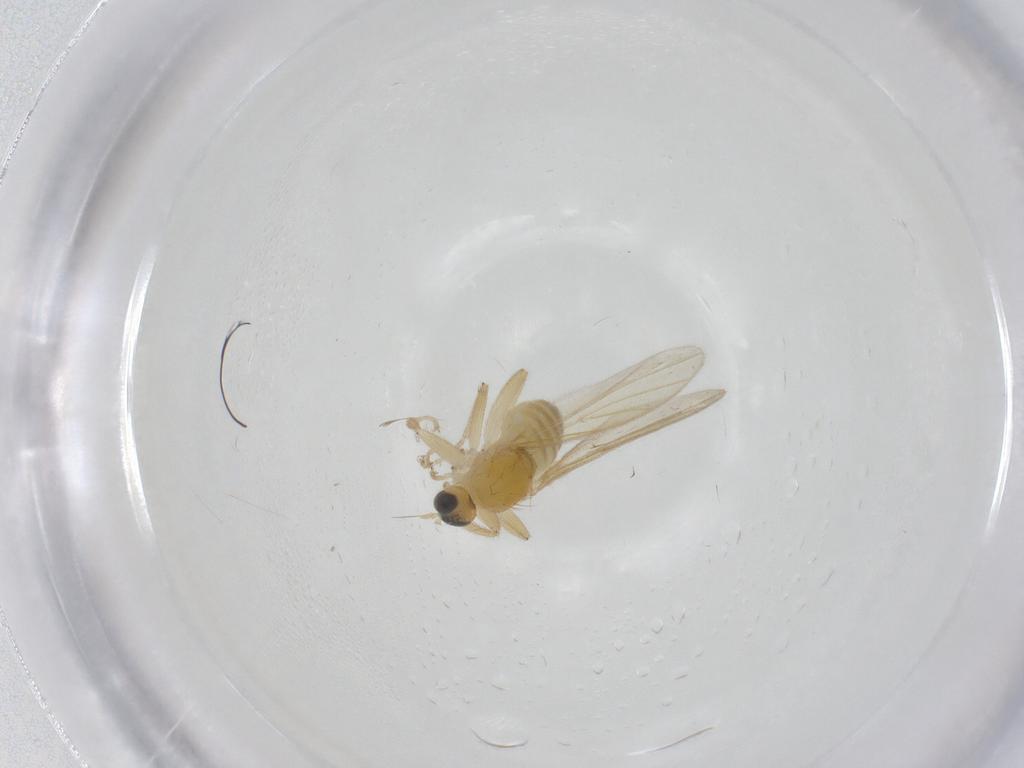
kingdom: Animalia
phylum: Arthropoda
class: Insecta
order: Diptera
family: Hybotidae
